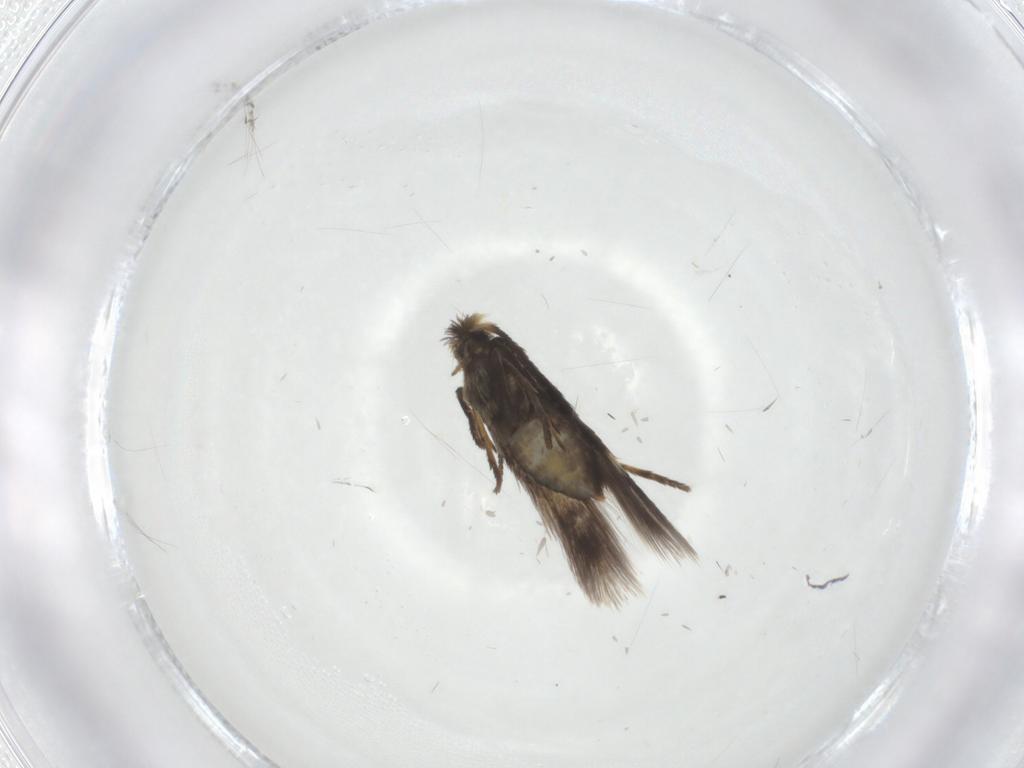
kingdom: Animalia
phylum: Arthropoda
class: Insecta
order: Lepidoptera
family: Nepticulidae
